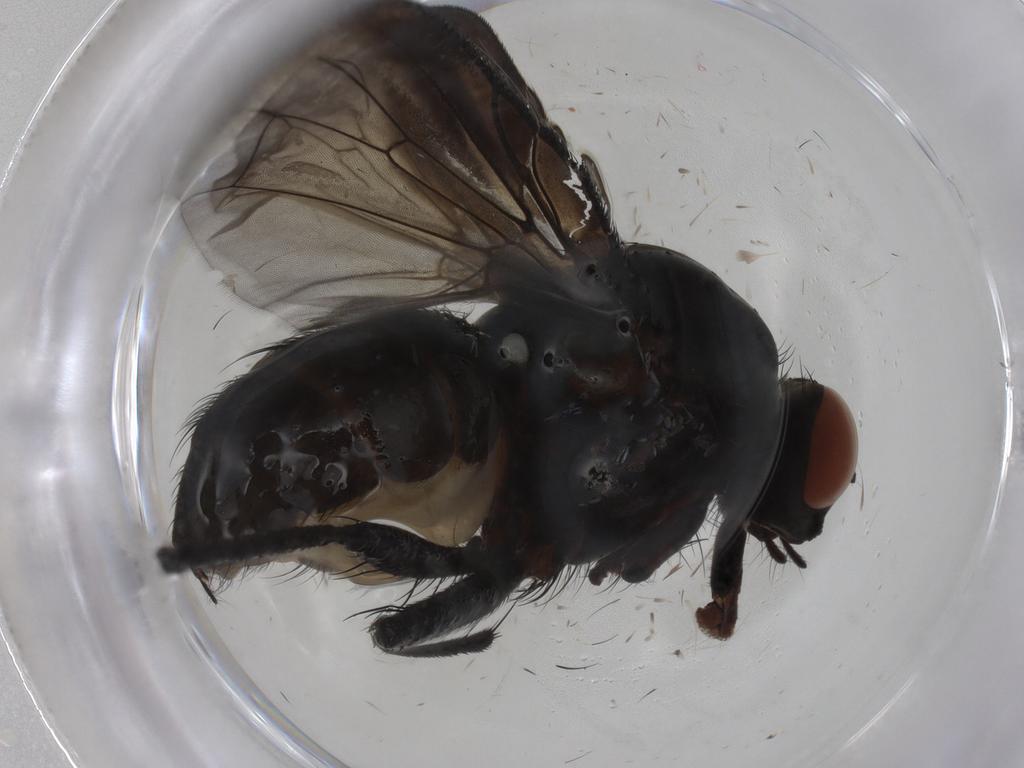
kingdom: Animalia
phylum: Arthropoda
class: Insecta
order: Diptera
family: Anthomyiidae
